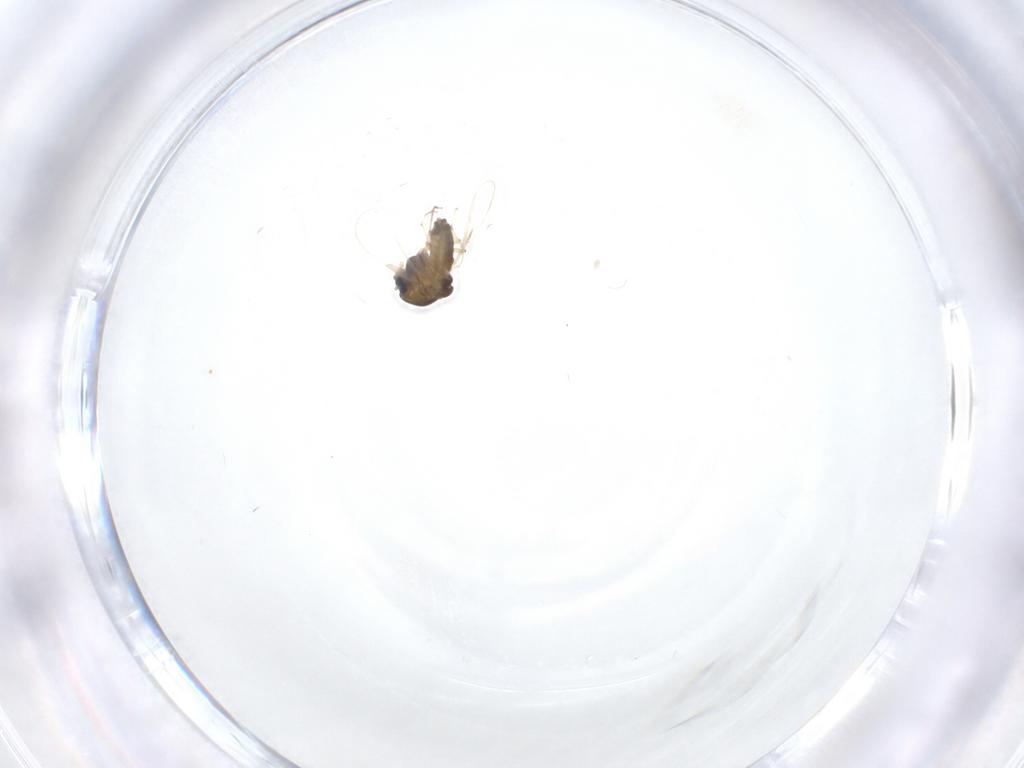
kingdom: Animalia
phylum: Arthropoda
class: Insecta
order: Diptera
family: Chironomidae
